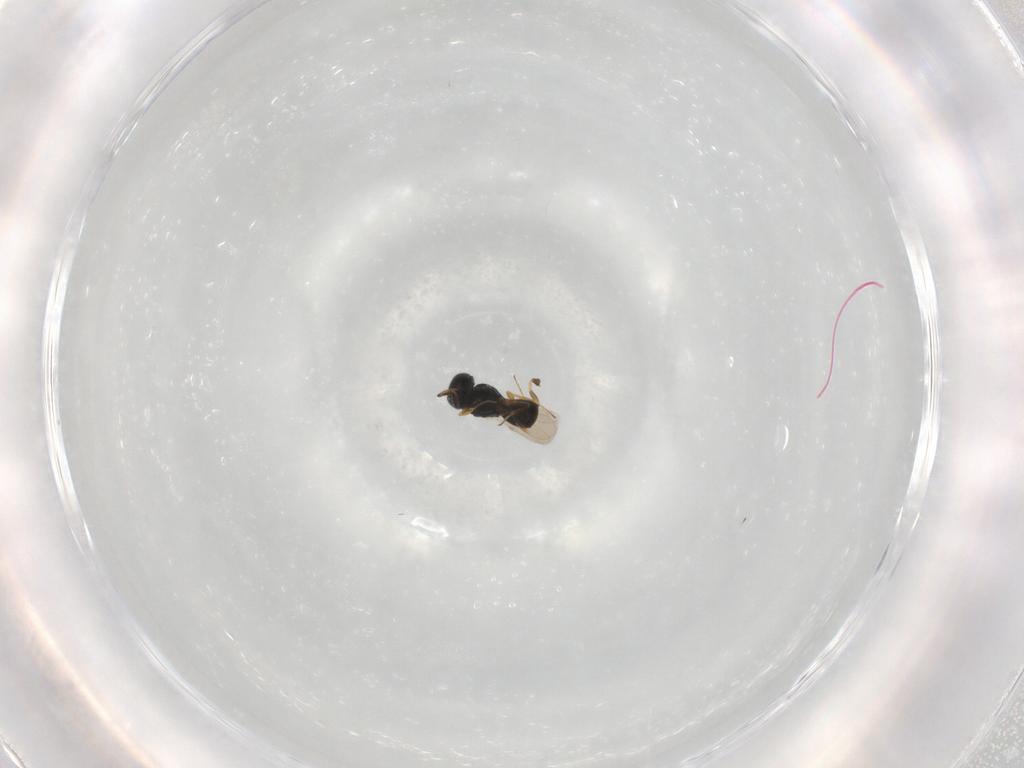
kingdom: Animalia
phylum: Arthropoda
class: Insecta
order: Hymenoptera
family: Scelionidae
